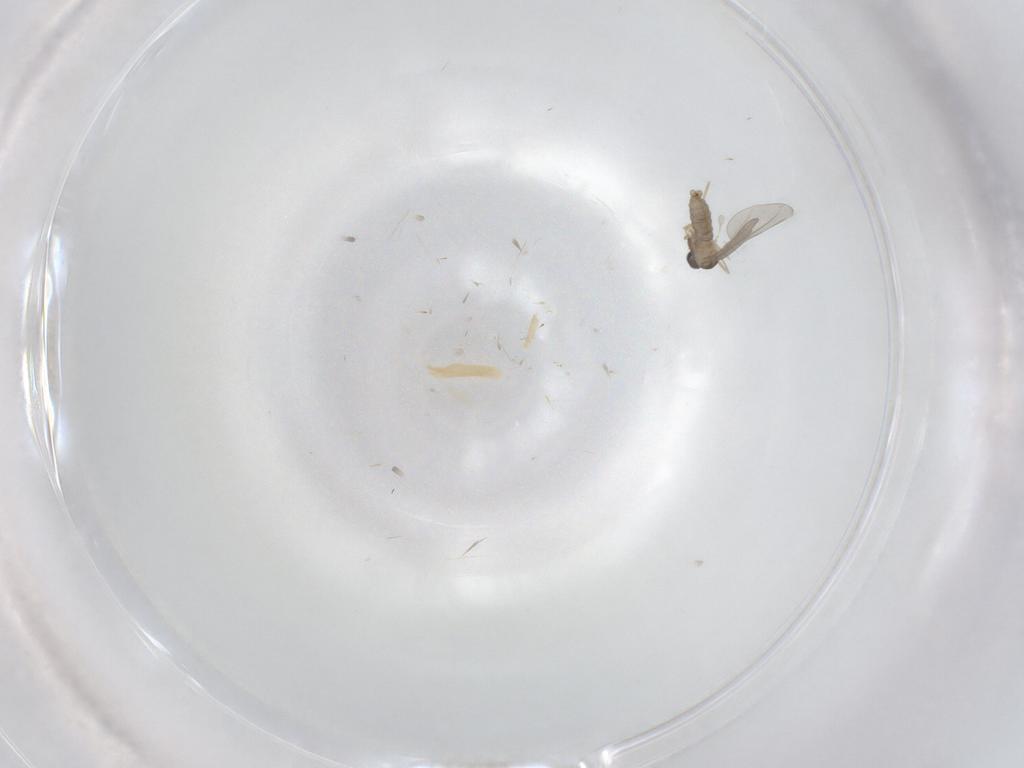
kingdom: Animalia
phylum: Arthropoda
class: Insecta
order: Diptera
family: Cecidomyiidae
